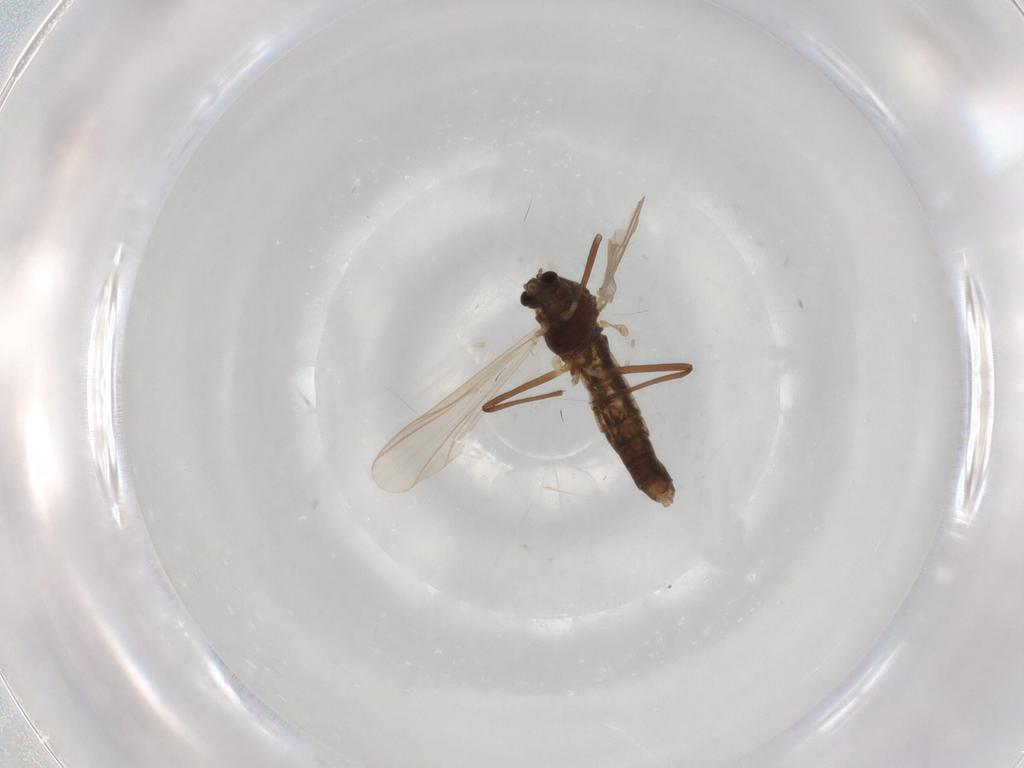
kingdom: Animalia
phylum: Arthropoda
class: Insecta
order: Diptera
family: Chironomidae
